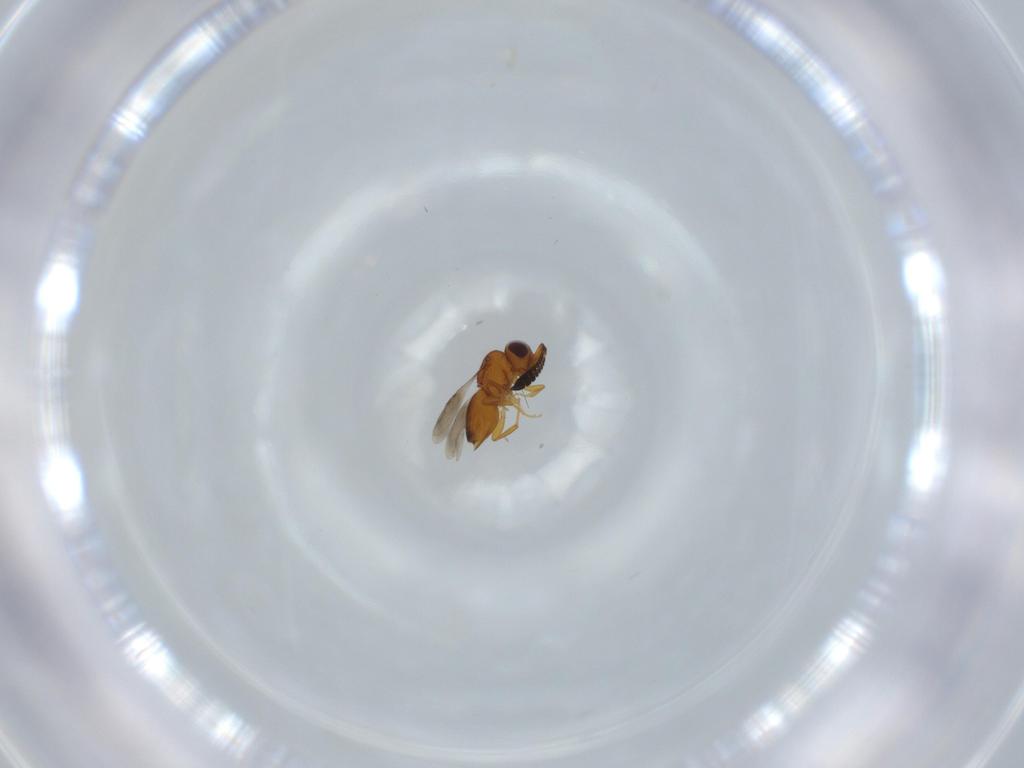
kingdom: Animalia
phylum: Arthropoda
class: Insecta
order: Hymenoptera
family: Ceraphronidae
